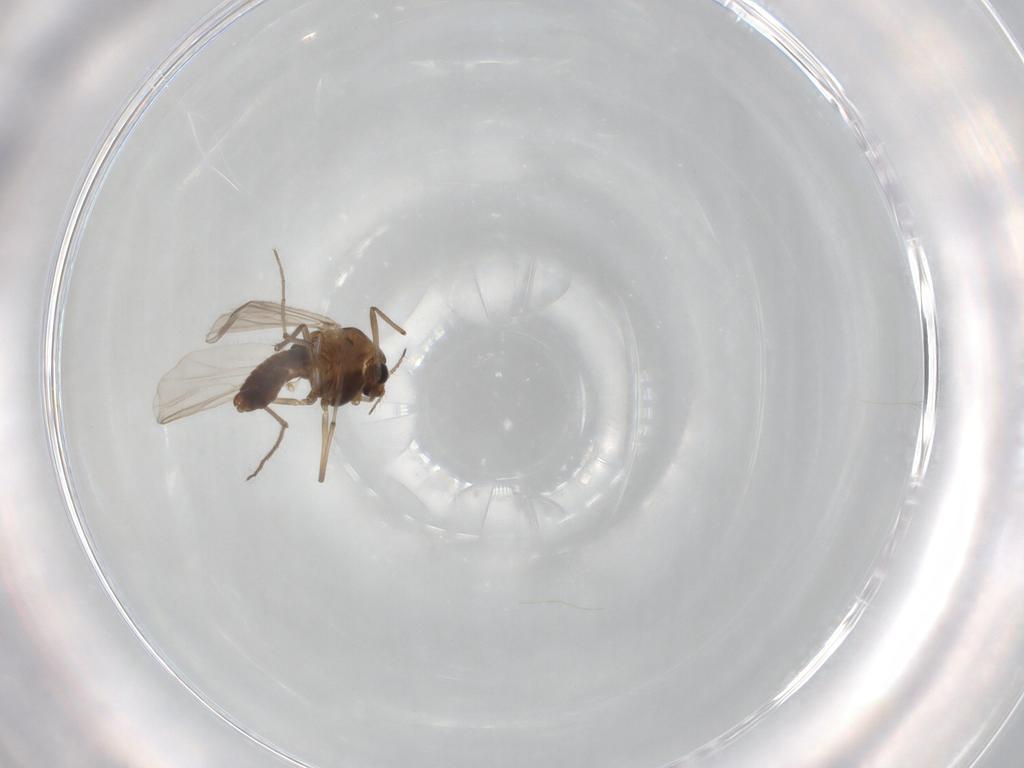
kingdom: Animalia
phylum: Arthropoda
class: Insecta
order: Diptera
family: Chironomidae
